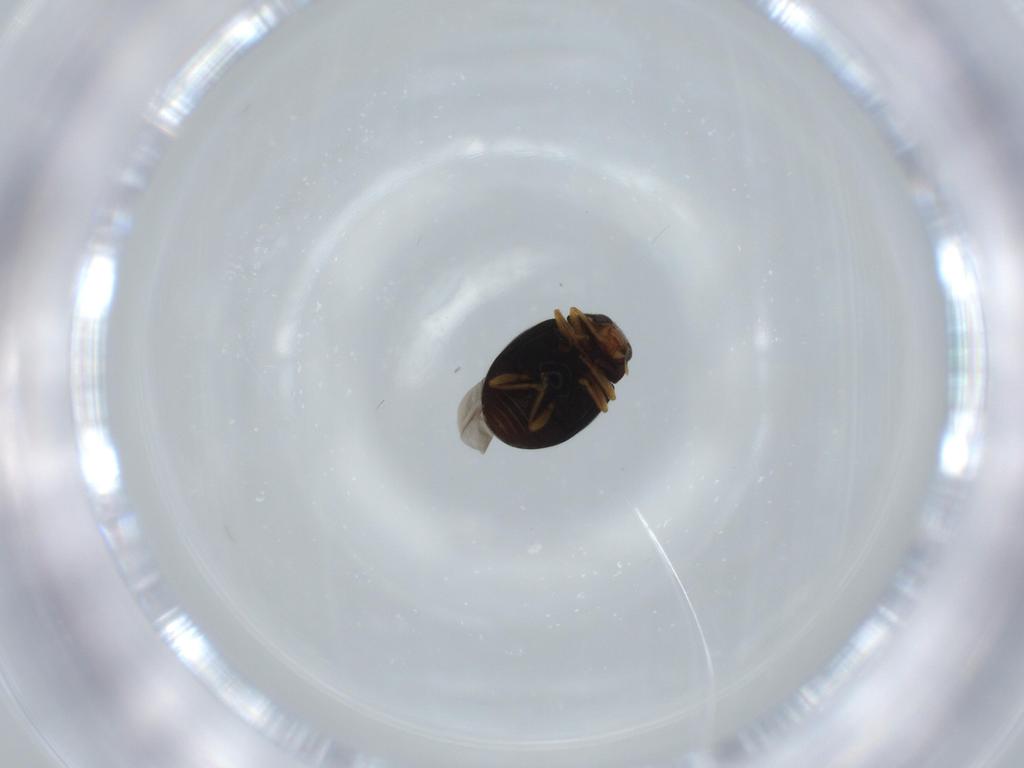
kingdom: Animalia
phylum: Arthropoda
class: Insecta
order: Coleoptera
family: Coccinellidae
